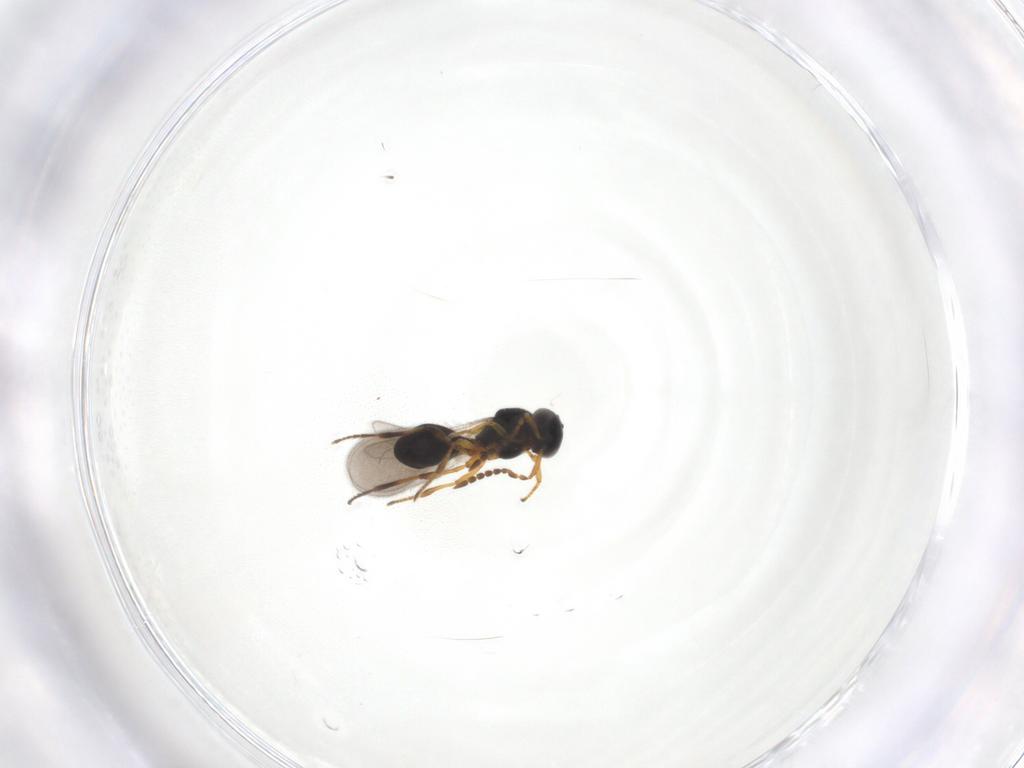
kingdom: Animalia
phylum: Arthropoda
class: Insecta
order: Hymenoptera
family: Platygastridae
